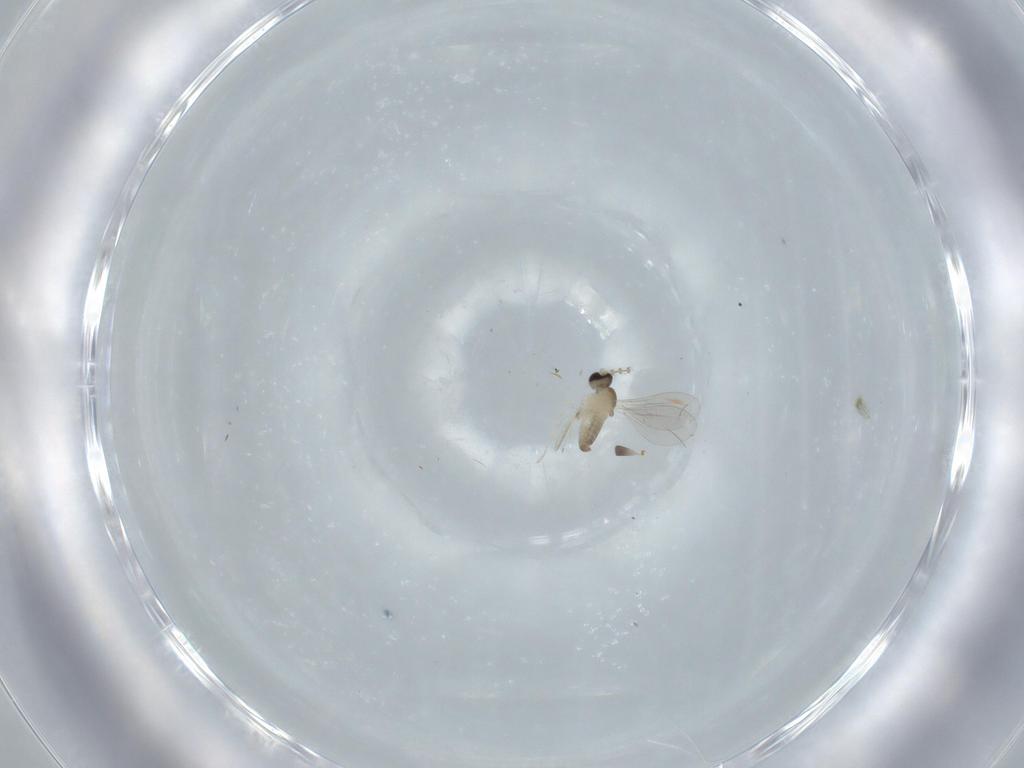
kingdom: Animalia
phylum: Arthropoda
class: Insecta
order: Diptera
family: Cecidomyiidae
